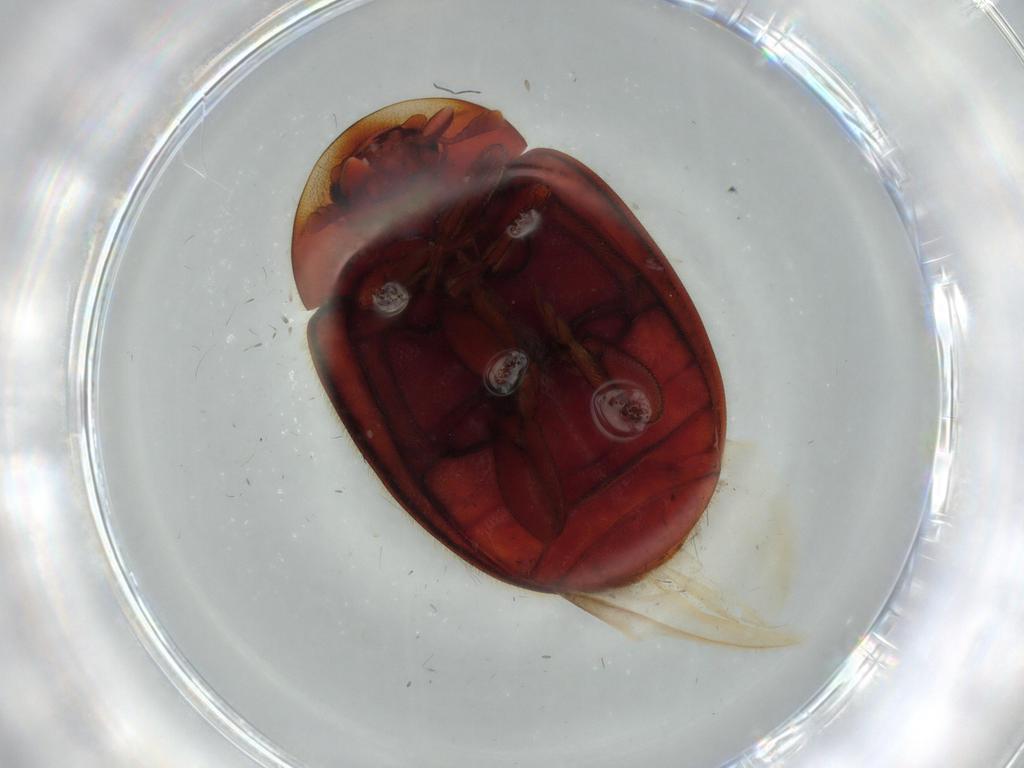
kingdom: Animalia
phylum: Arthropoda
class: Insecta
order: Coleoptera
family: Coccinellidae
